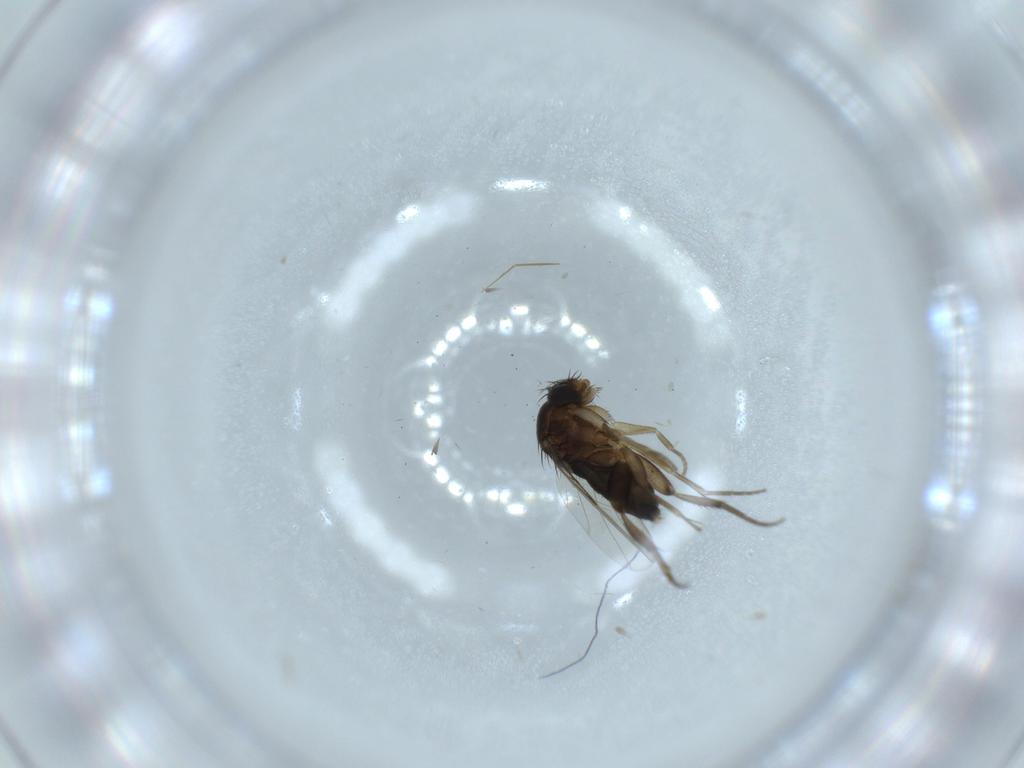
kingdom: Animalia
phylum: Arthropoda
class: Insecta
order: Diptera
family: Phoridae
